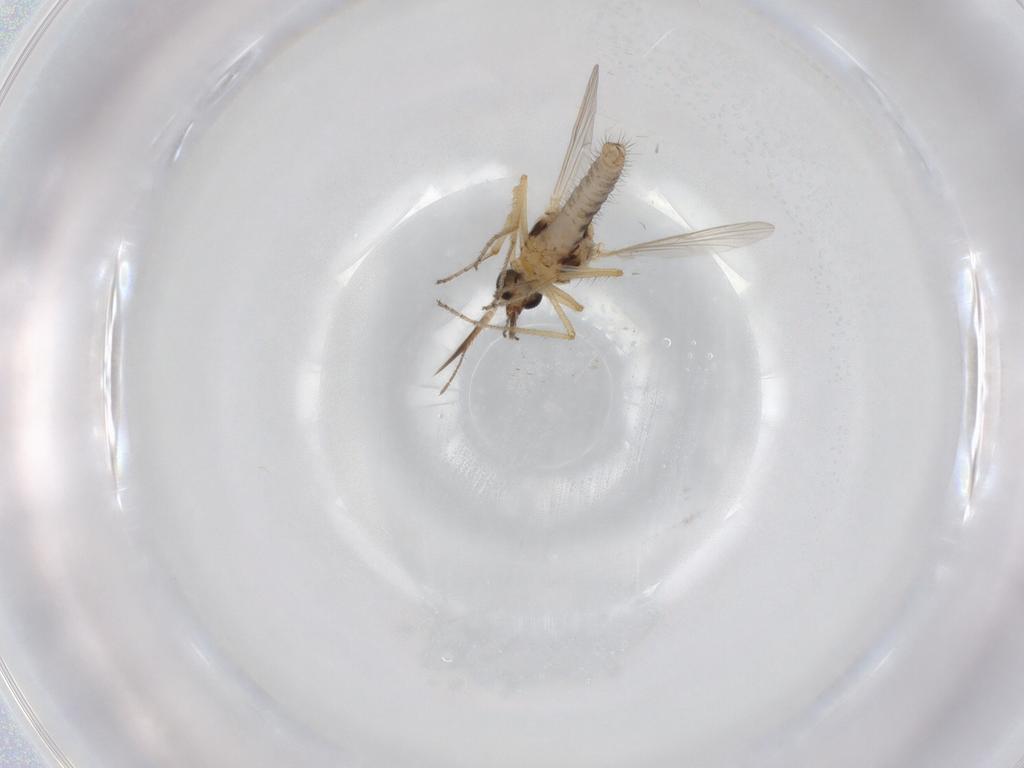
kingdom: Animalia
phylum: Arthropoda
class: Insecta
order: Diptera
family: Ceratopogonidae
